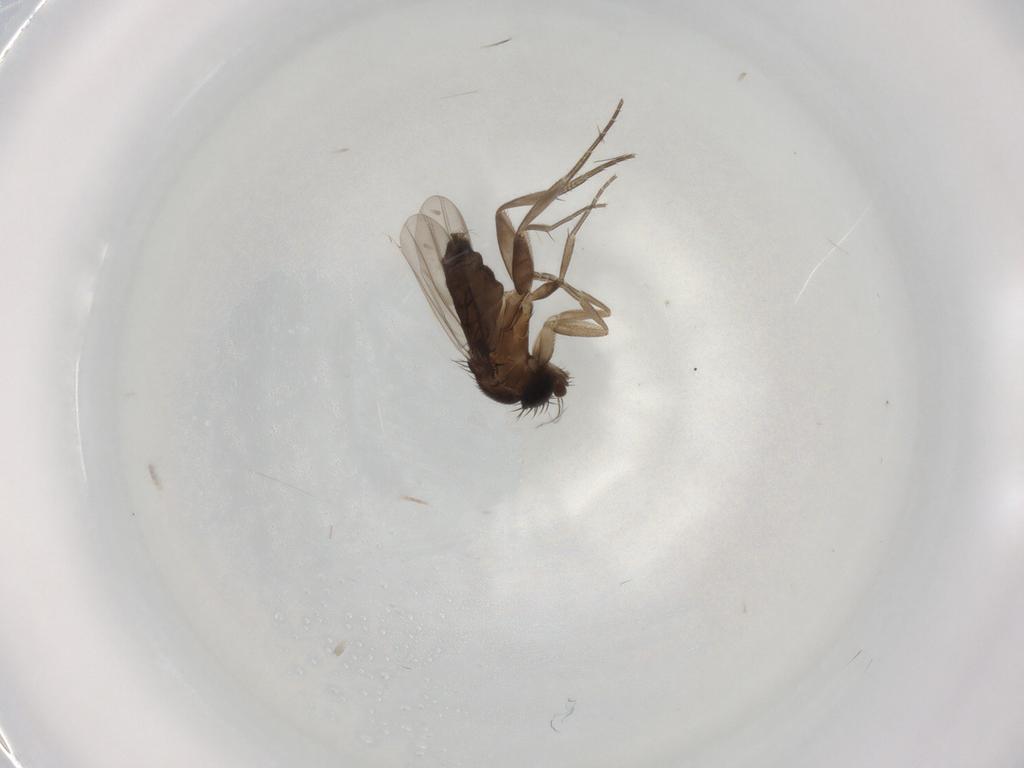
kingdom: Animalia
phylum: Arthropoda
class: Insecta
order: Diptera
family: Phoridae
